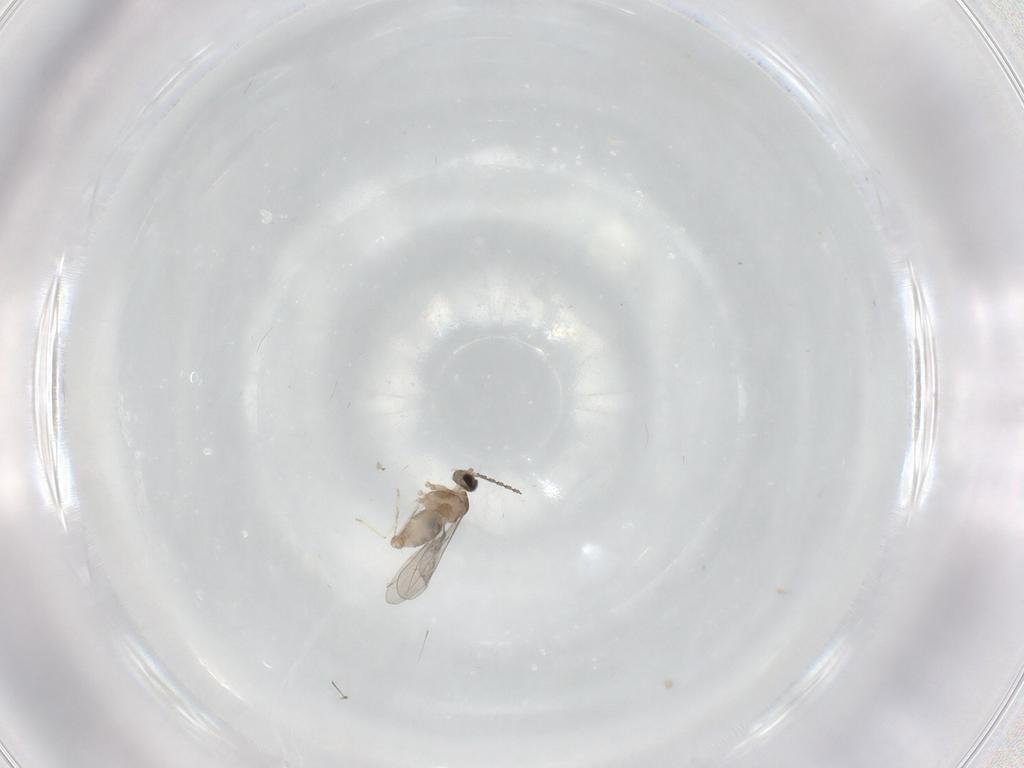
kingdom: Animalia
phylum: Arthropoda
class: Insecta
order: Diptera
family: Cecidomyiidae
